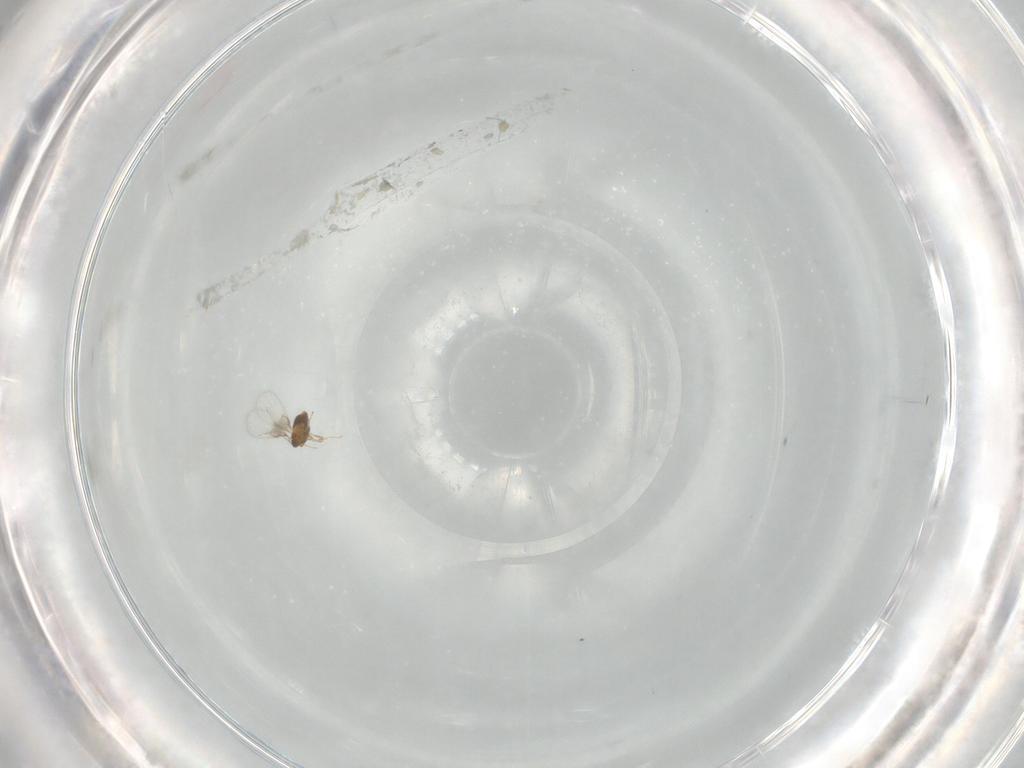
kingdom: Animalia
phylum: Arthropoda
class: Insecta
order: Hymenoptera
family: Trichogrammatidae
